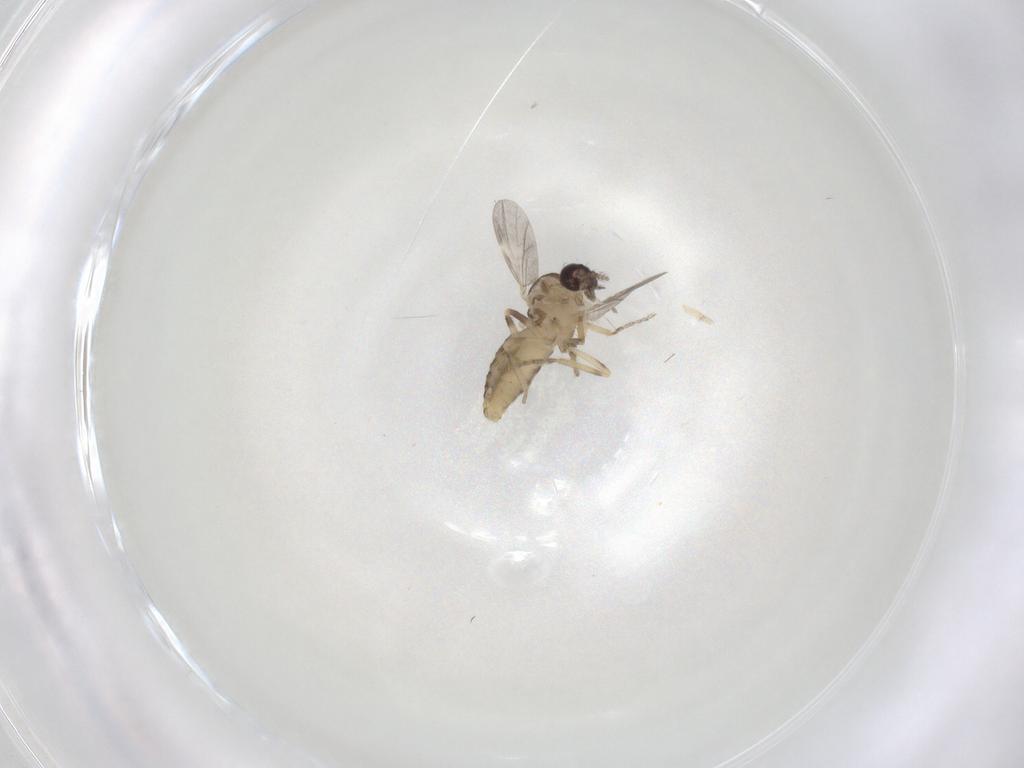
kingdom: Animalia
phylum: Arthropoda
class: Insecta
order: Diptera
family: Ceratopogonidae
